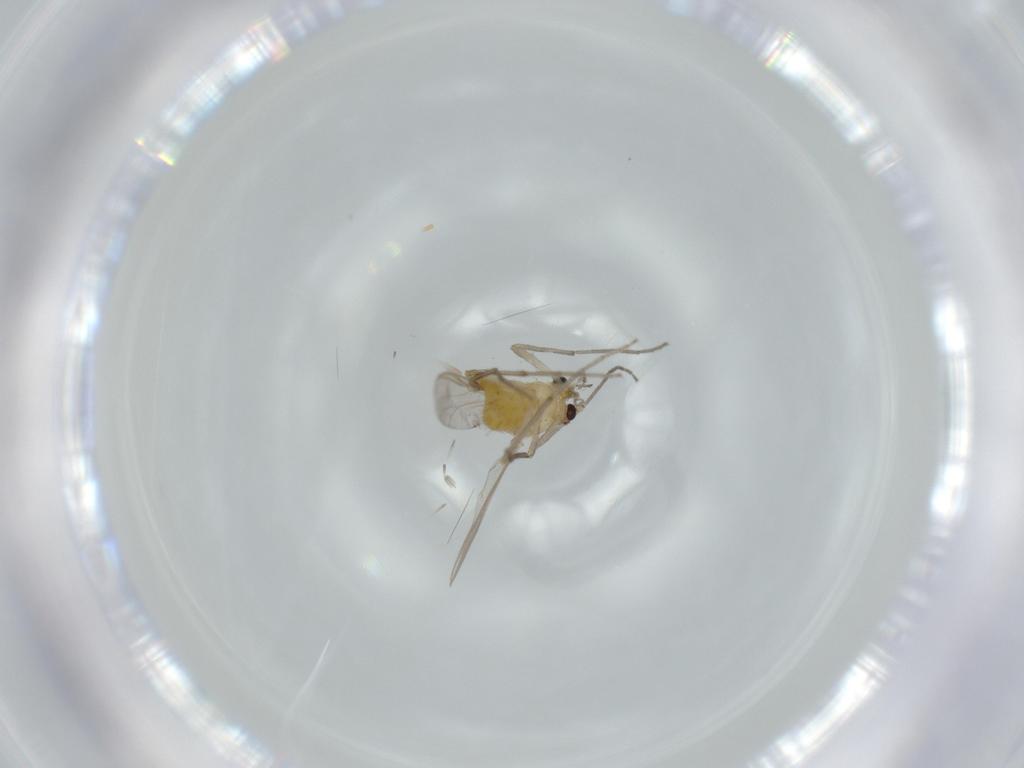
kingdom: Animalia
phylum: Arthropoda
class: Insecta
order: Diptera
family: Chironomidae
